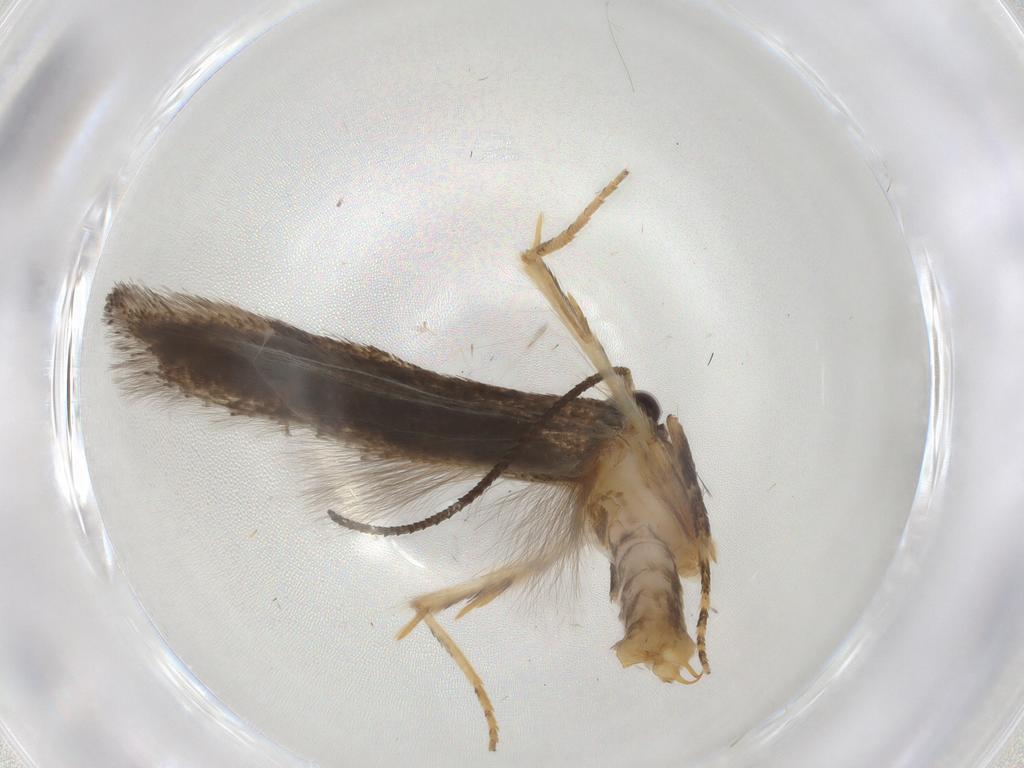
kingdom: Animalia
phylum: Arthropoda
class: Insecta
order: Lepidoptera
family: Gelechiidae
